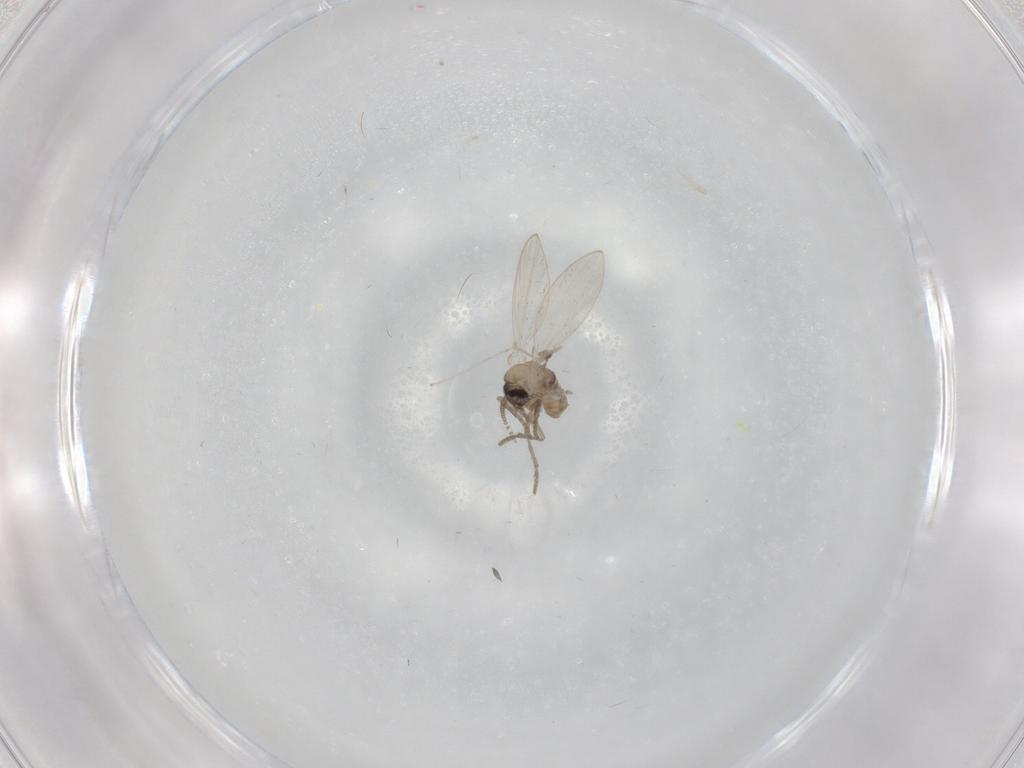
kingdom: Animalia
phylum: Arthropoda
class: Insecta
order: Diptera
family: Psychodidae
